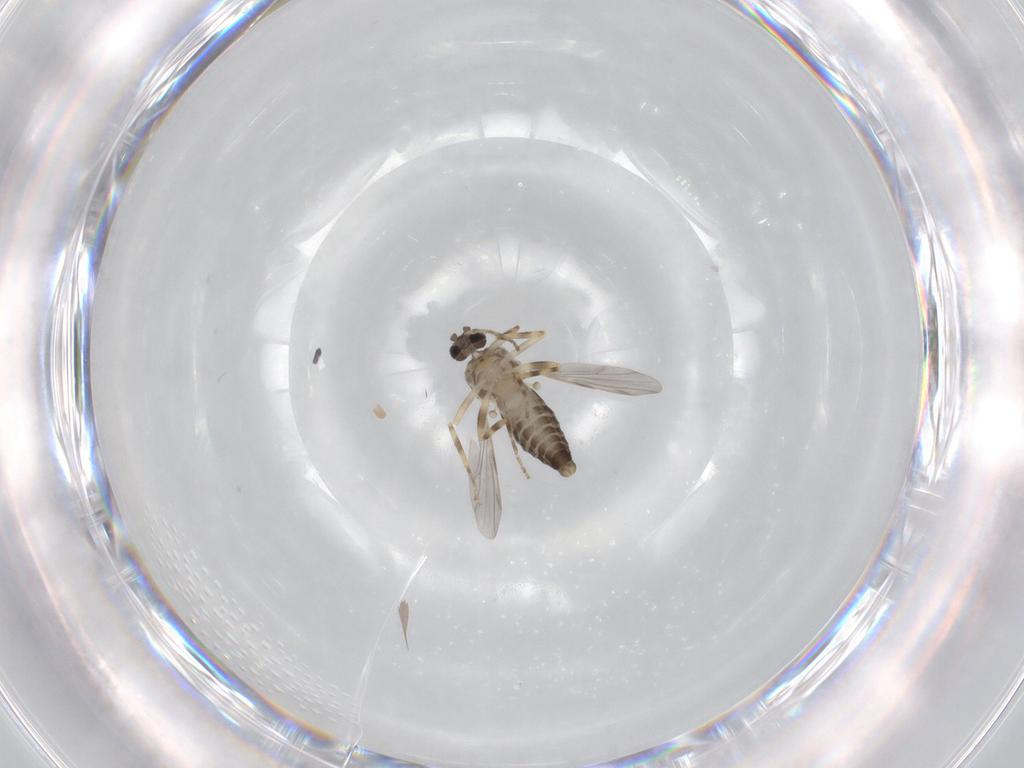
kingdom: Animalia
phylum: Arthropoda
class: Insecta
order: Diptera
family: Ceratopogonidae
